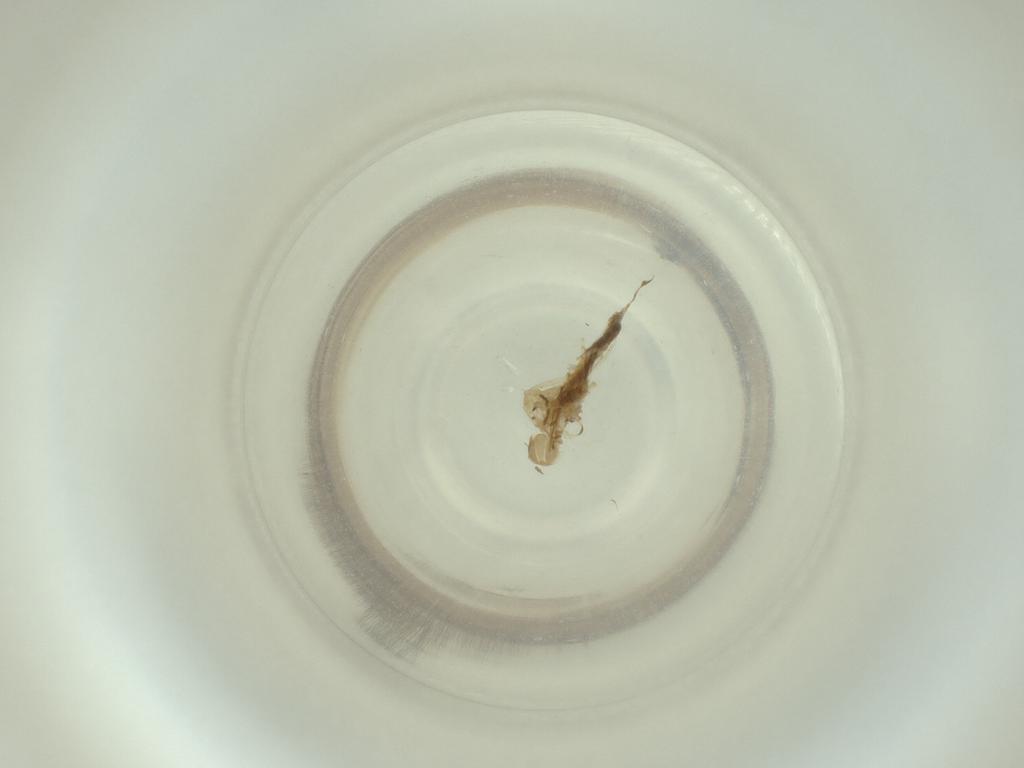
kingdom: Animalia
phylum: Arthropoda
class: Insecta
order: Diptera
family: Cecidomyiidae
